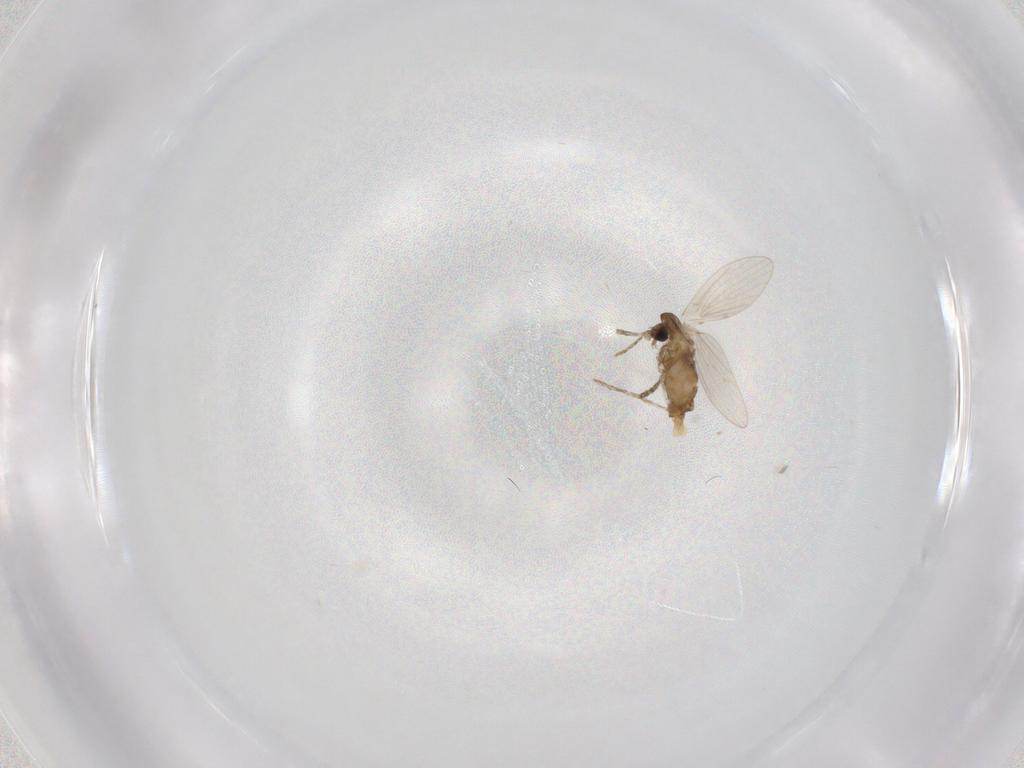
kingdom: Animalia
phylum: Arthropoda
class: Insecta
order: Diptera
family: Psychodidae
